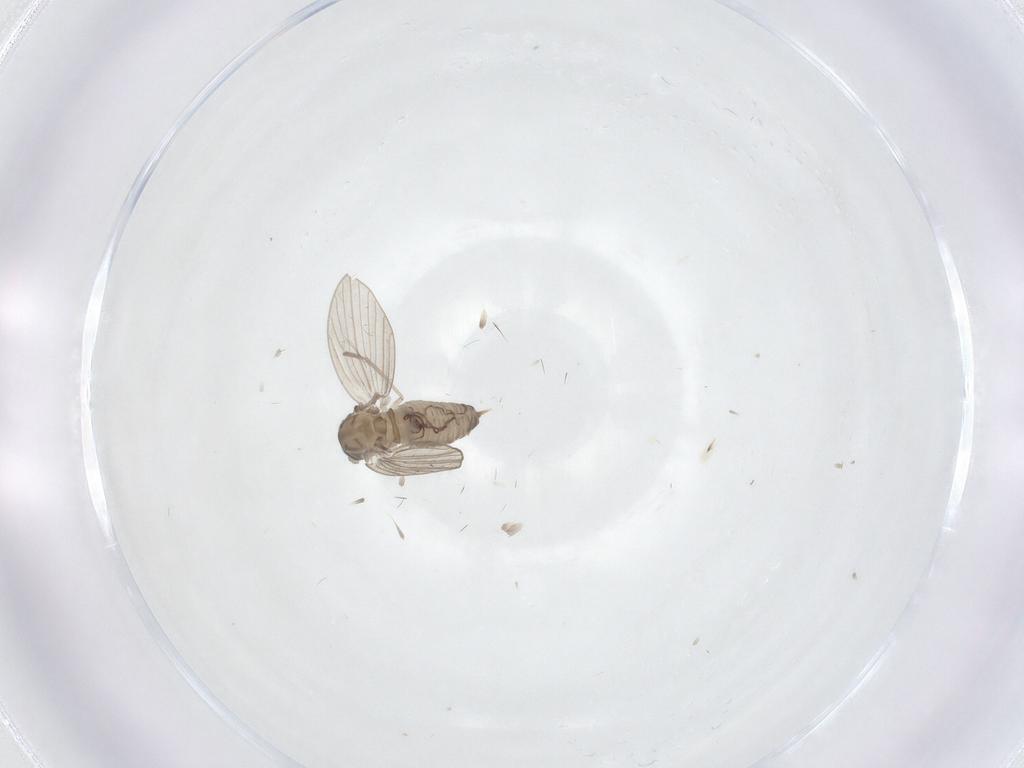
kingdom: Animalia
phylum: Arthropoda
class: Insecta
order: Diptera
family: Psychodidae
